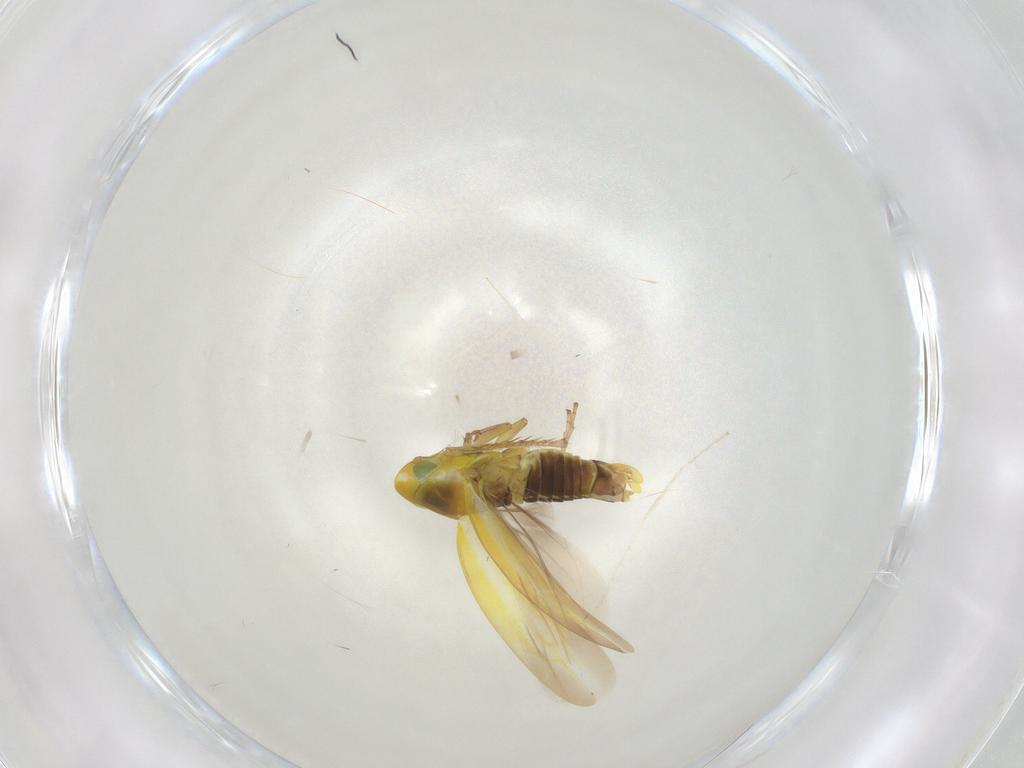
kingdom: Animalia
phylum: Arthropoda
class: Insecta
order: Hemiptera
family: Cicadellidae
